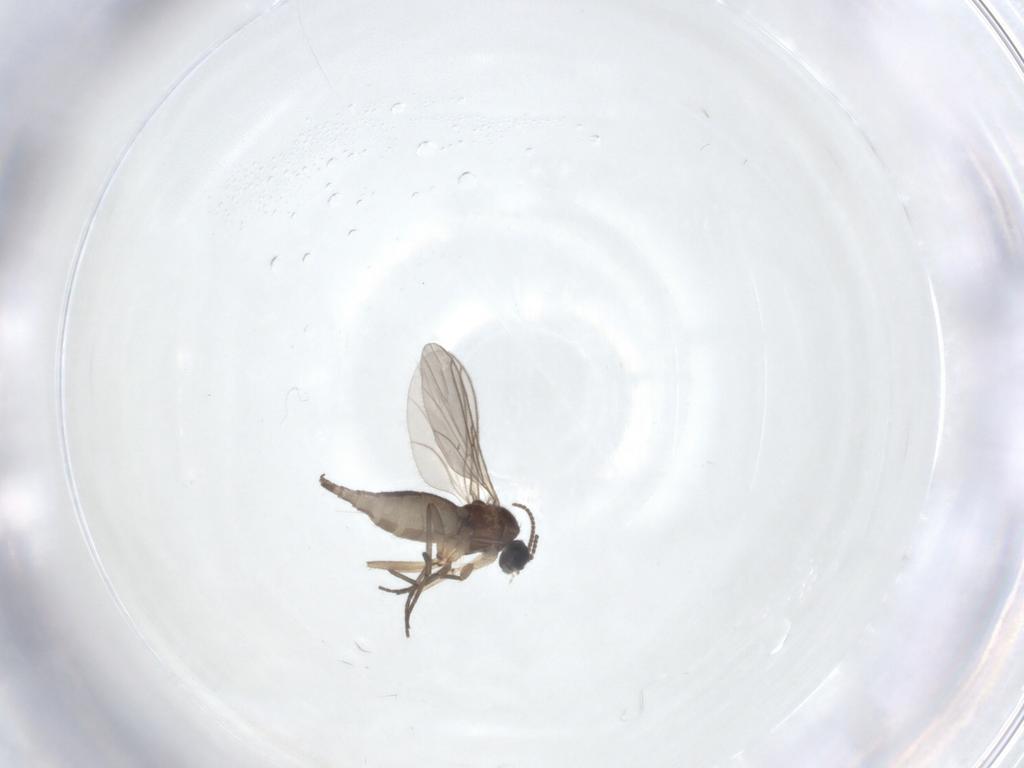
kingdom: Animalia
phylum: Arthropoda
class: Insecta
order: Diptera
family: Sciaridae
